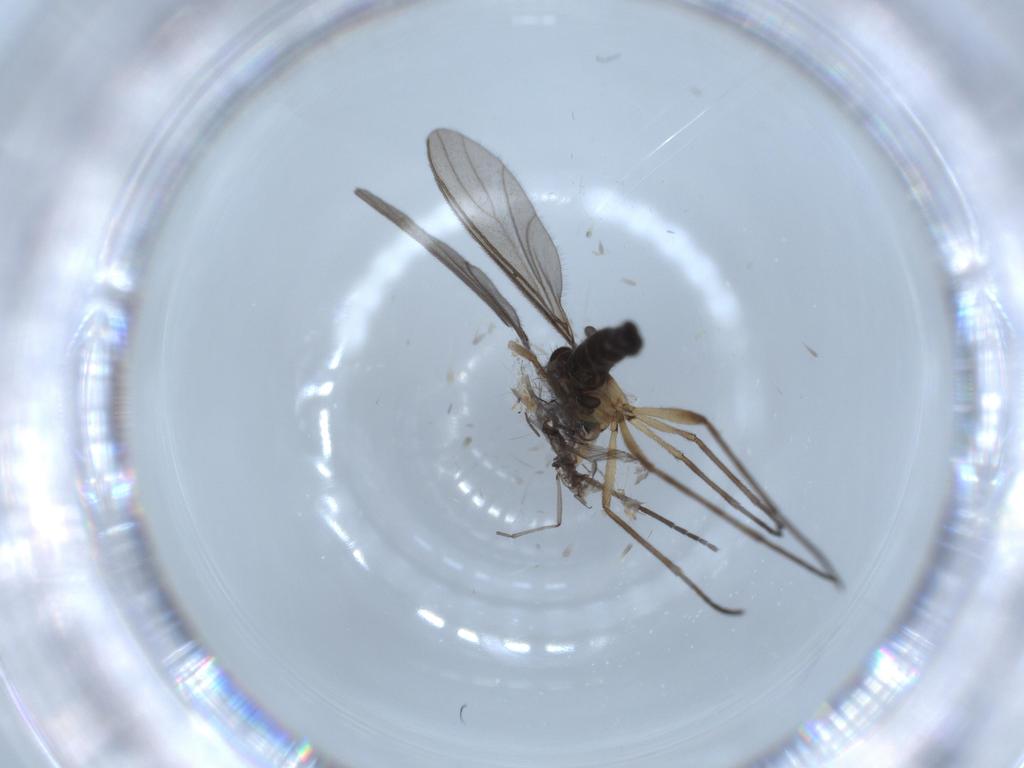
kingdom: Animalia
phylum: Arthropoda
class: Insecta
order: Diptera
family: Sciaridae
